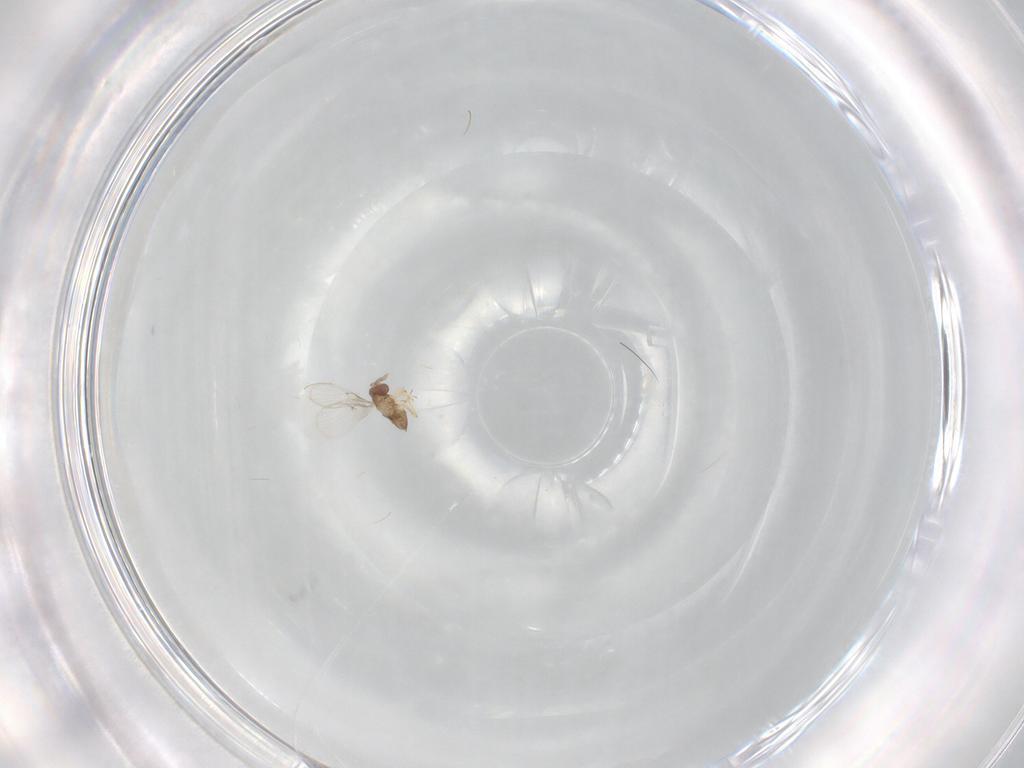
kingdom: Animalia
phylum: Arthropoda
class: Insecta
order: Hymenoptera
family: Trichogrammatidae
